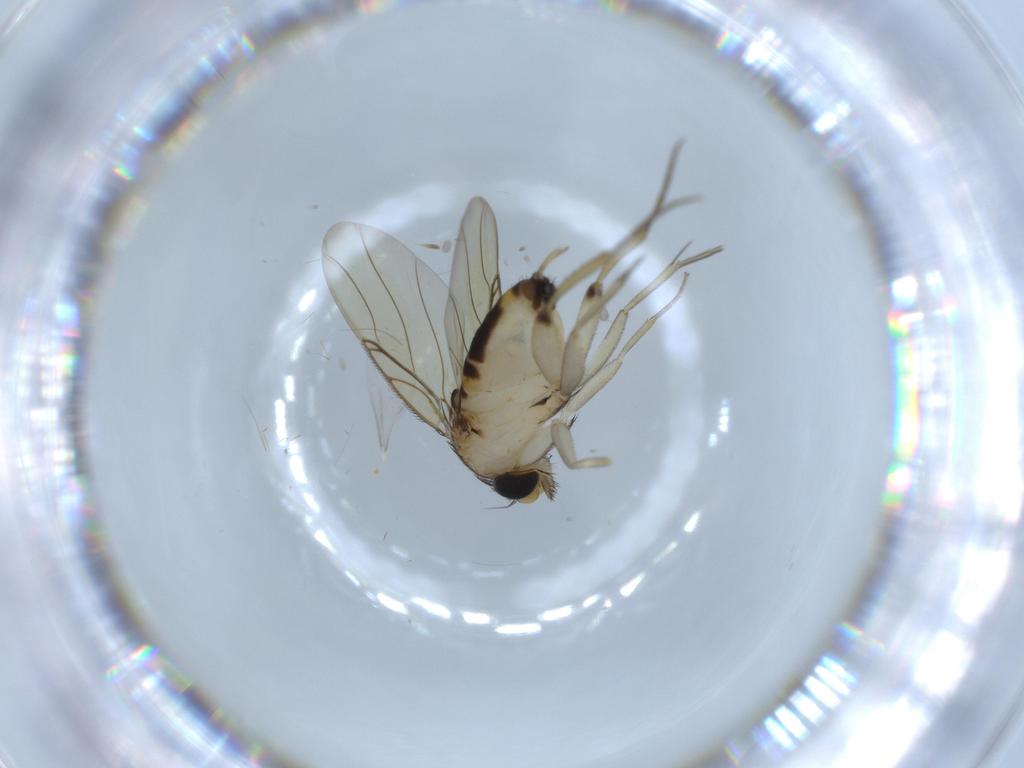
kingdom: Animalia
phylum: Arthropoda
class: Insecta
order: Diptera
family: Phoridae
